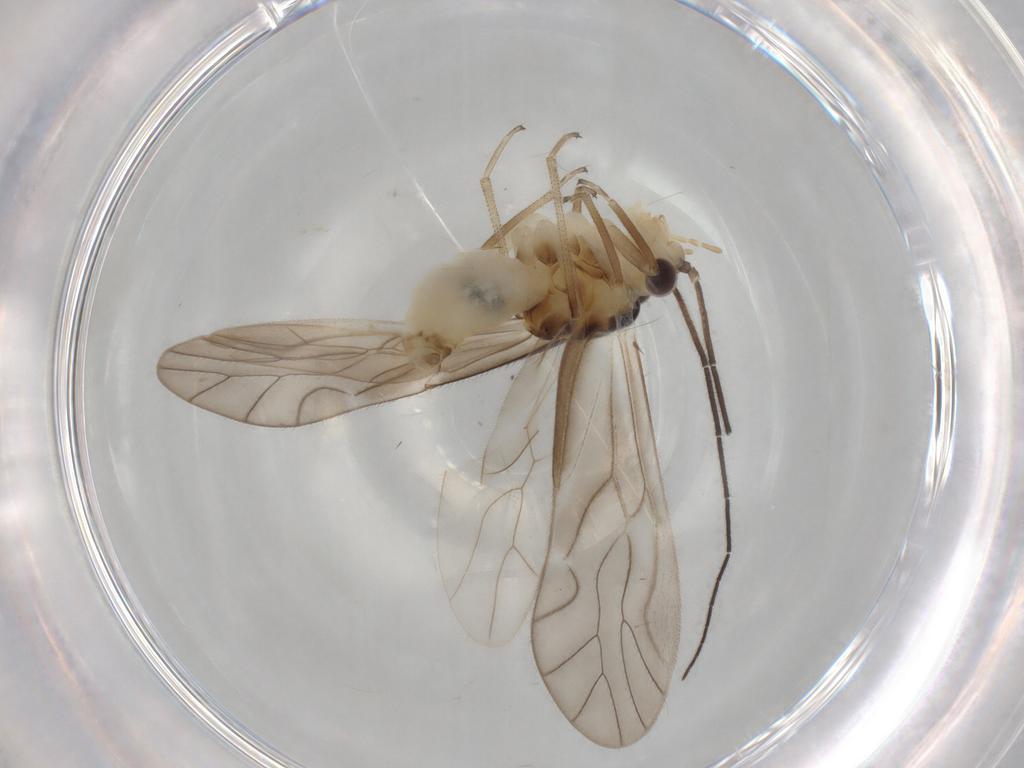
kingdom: Animalia
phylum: Arthropoda
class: Insecta
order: Psocodea
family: Caeciliusidae
